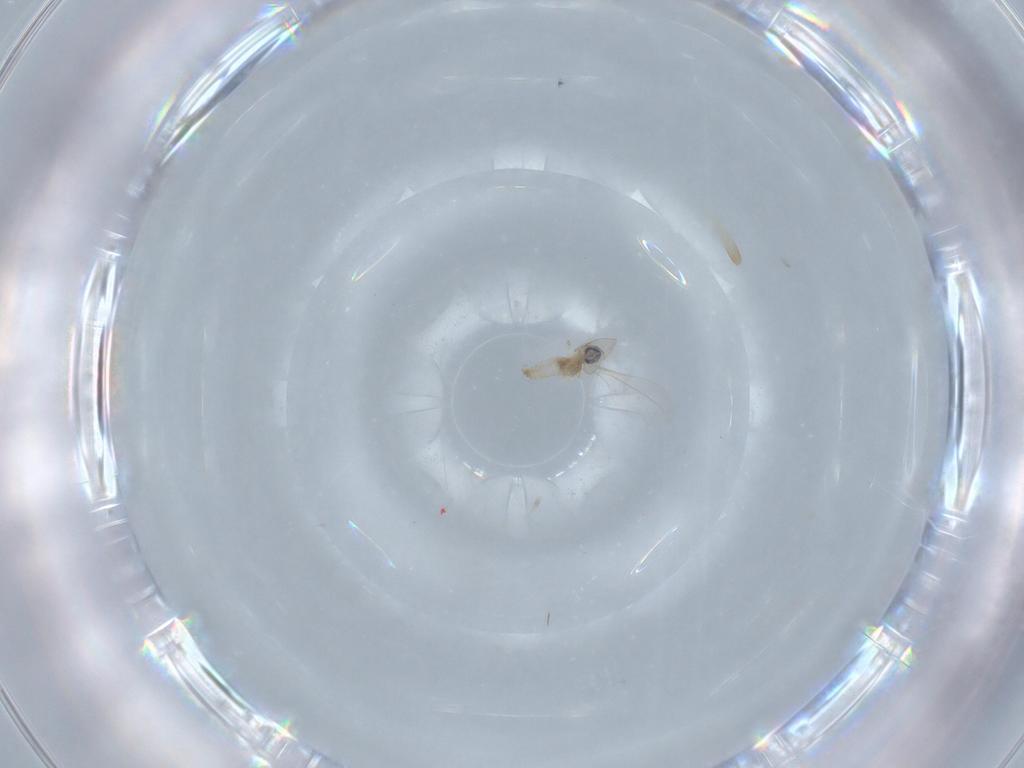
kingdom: Animalia
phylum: Arthropoda
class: Insecta
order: Diptera
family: Cecidomyiidae
